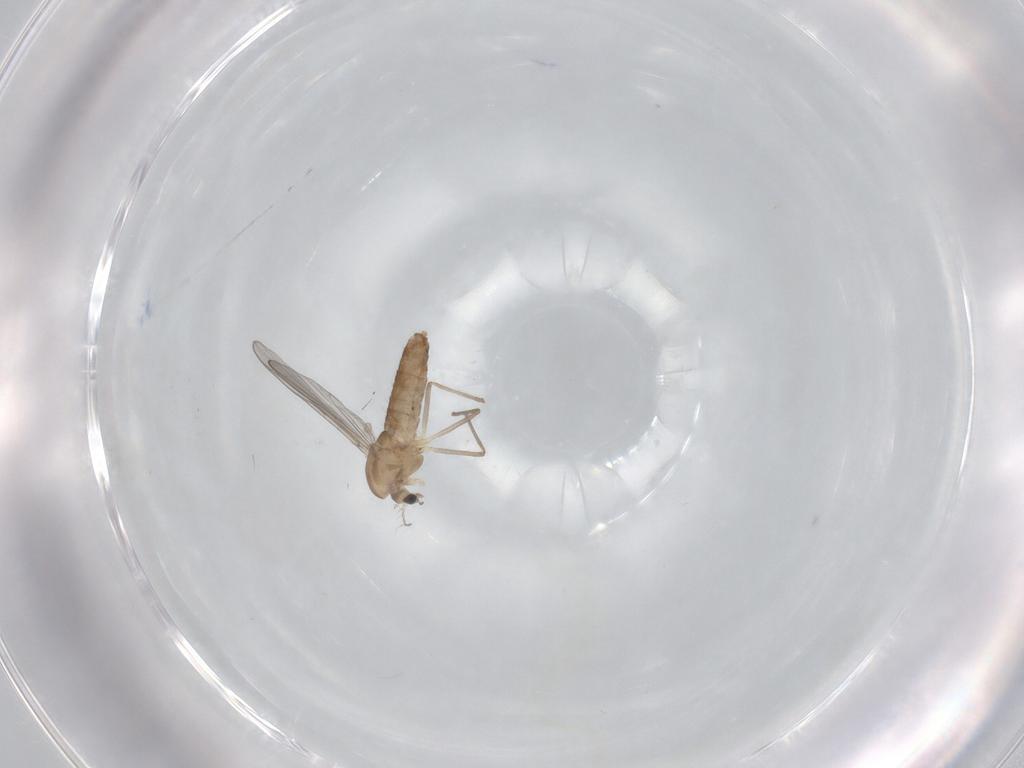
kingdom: Animalia
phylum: Arthropoda
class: Insecta
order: Diptera
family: Chironomidae
